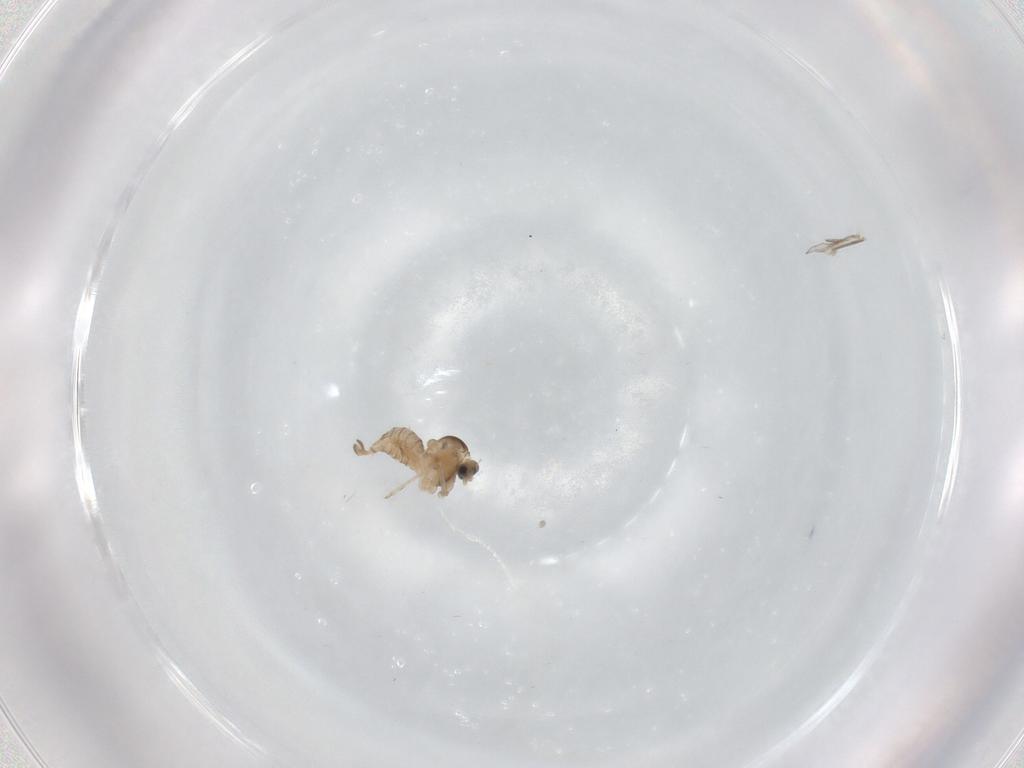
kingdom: Animalia
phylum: Arthropoda
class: Insecta
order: Diptera
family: Cecidomyiidae
